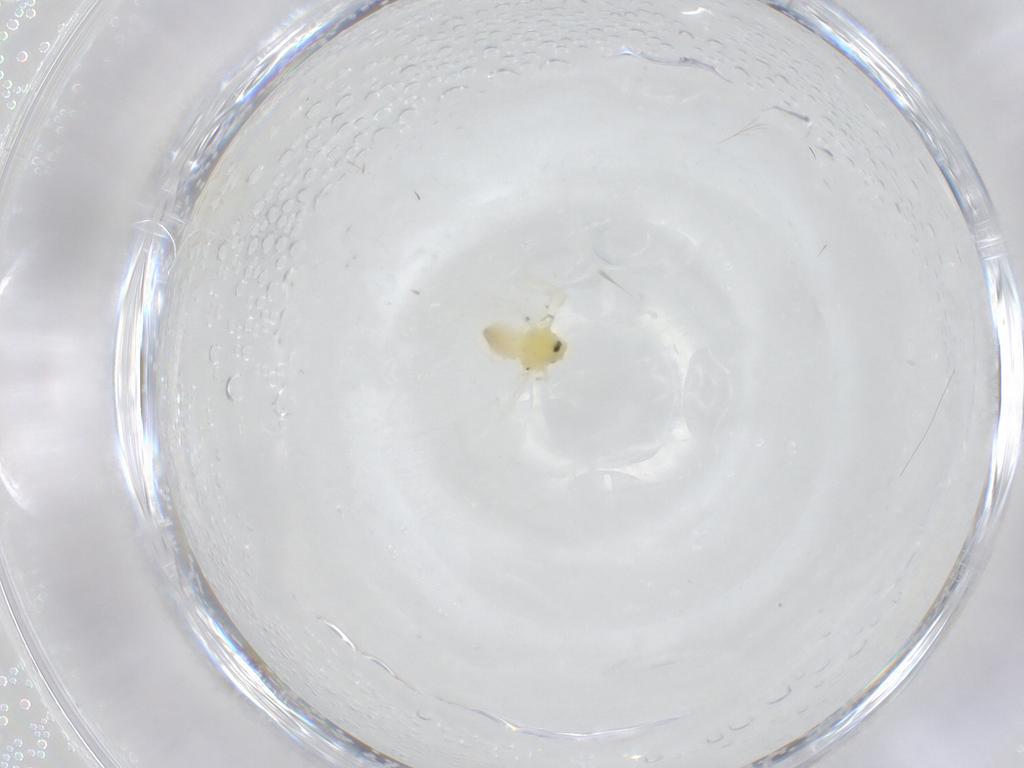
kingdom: Animalia
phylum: Arthropoda
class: Insecta
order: Hemiptera
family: Aleyrodidae
